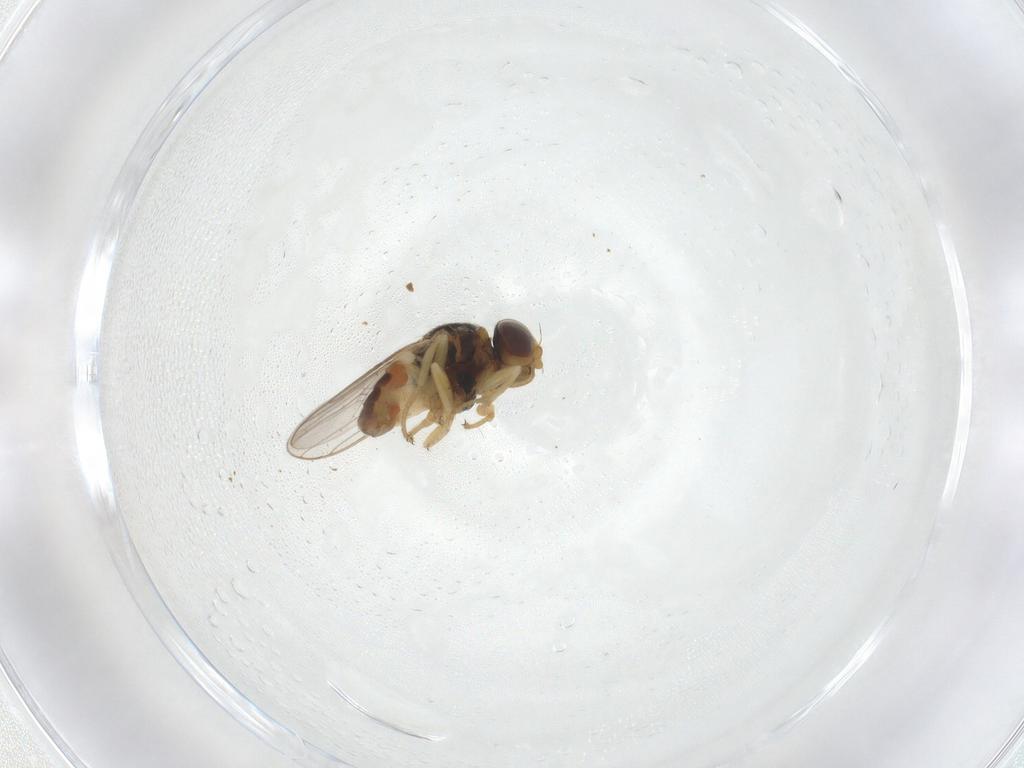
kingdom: Animalia
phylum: Arthropoda
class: Insecta
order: Diptera
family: Chloropidae
